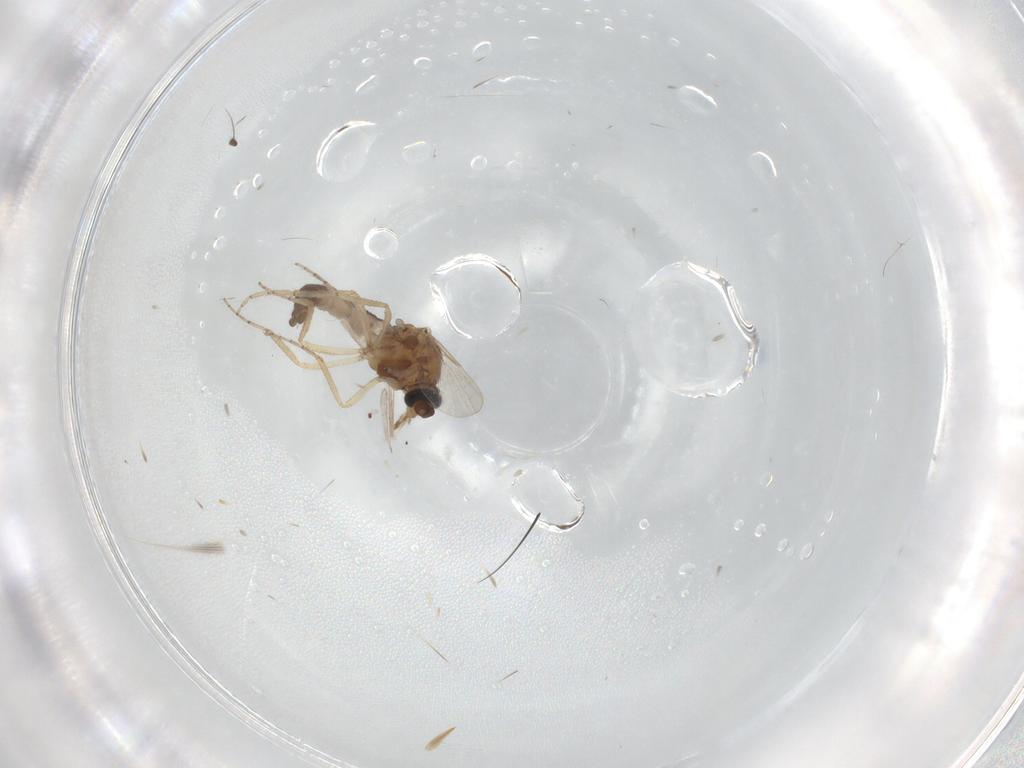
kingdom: Animalia
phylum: Arthropoda
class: Insecta
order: Diptera
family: Ceratopogonidae
